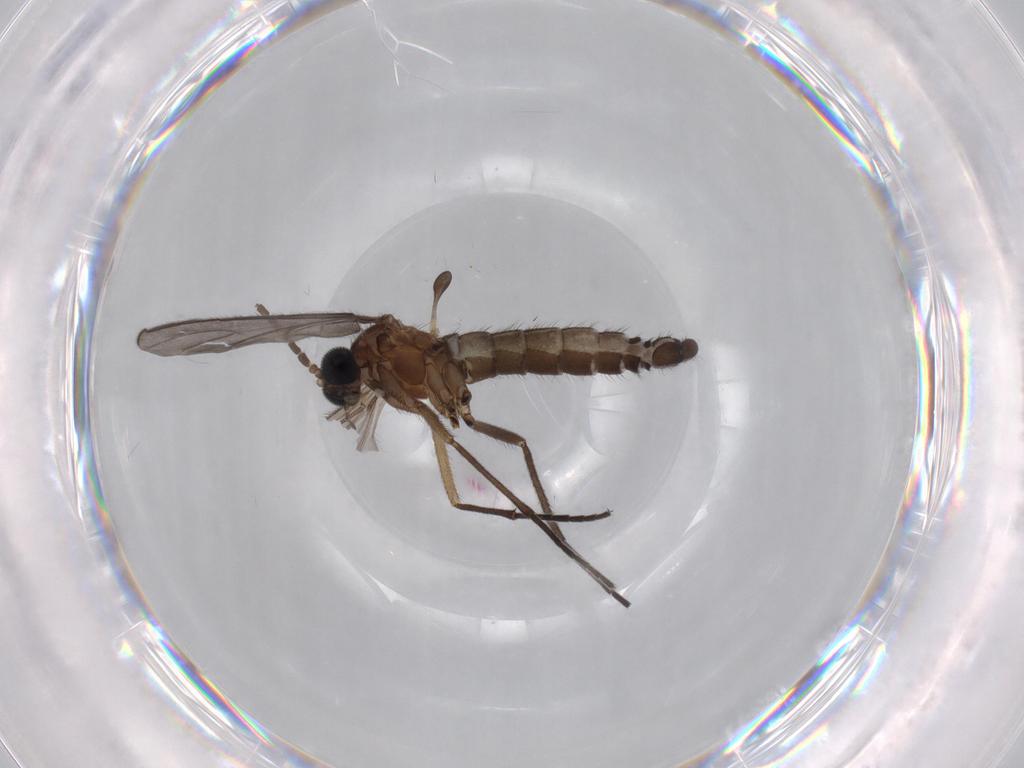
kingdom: Animalia
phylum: Arthropoda
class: Insecta
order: Diptera
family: Sciaridae
